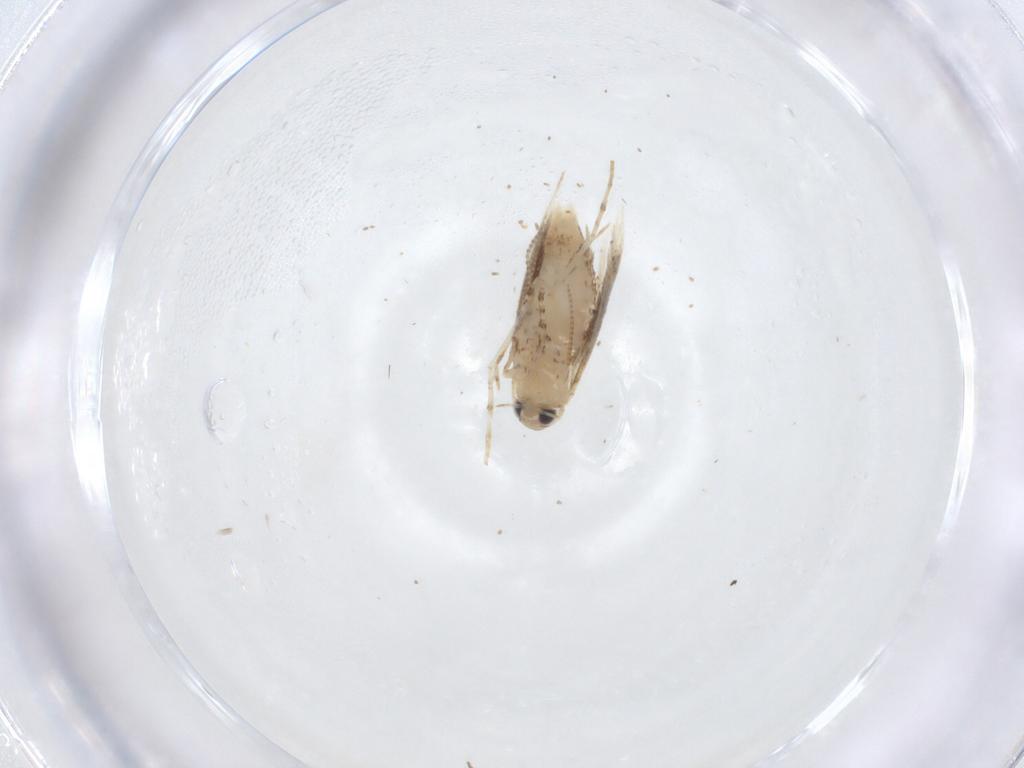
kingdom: Animalia
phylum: Arthropoda
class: Insecta
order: Lepidoptera
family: Gracillariidae
